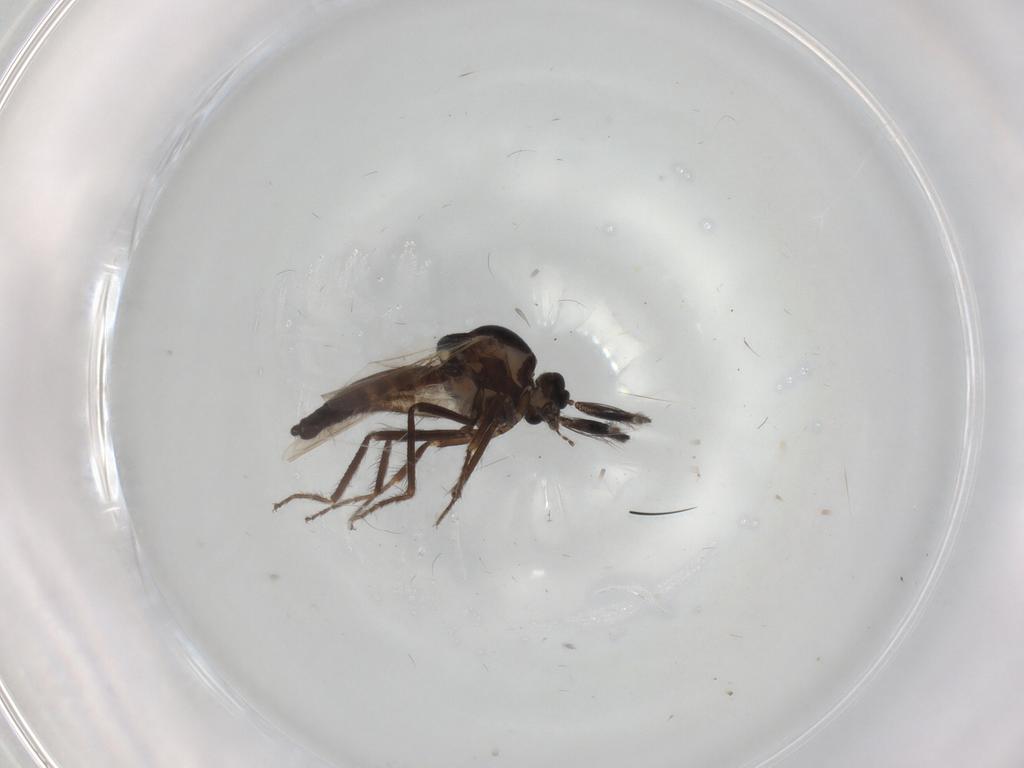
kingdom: Animalia
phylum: Arthropoda
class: Insecta
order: Diptera
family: Ceratopogonidae
